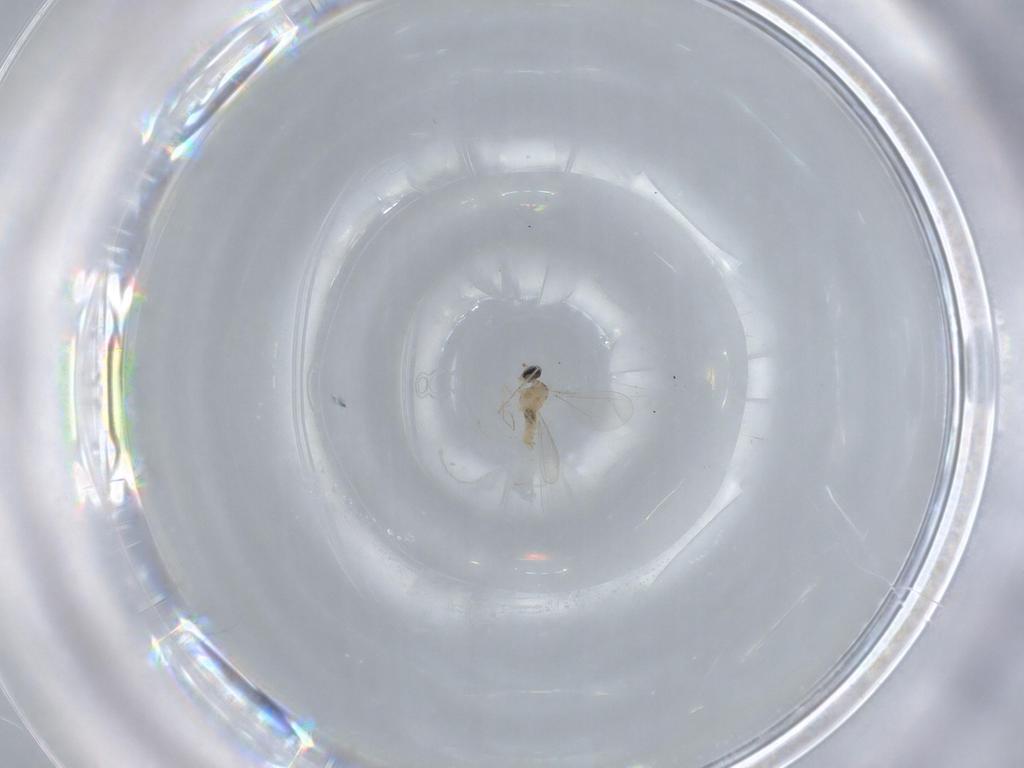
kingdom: Animalia
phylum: Arthropoda
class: Insecta
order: Diptera
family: Cecidomyiidae
